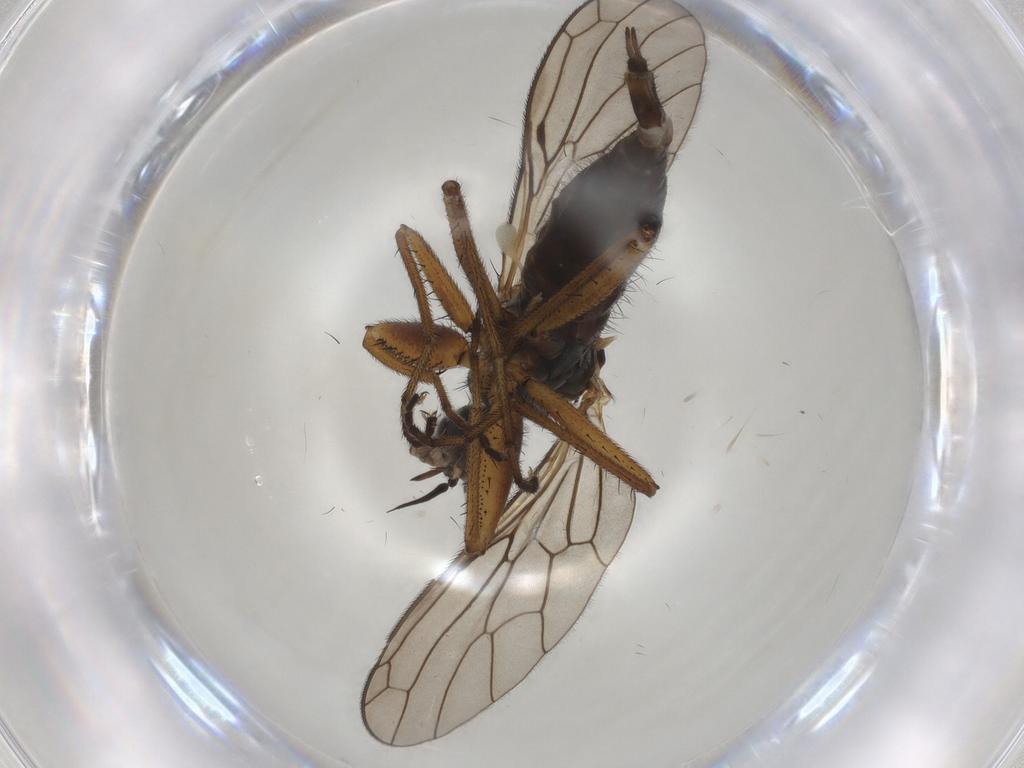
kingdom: Animalia
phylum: Arthropoda
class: Insecta
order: Diptera
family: Empididae
